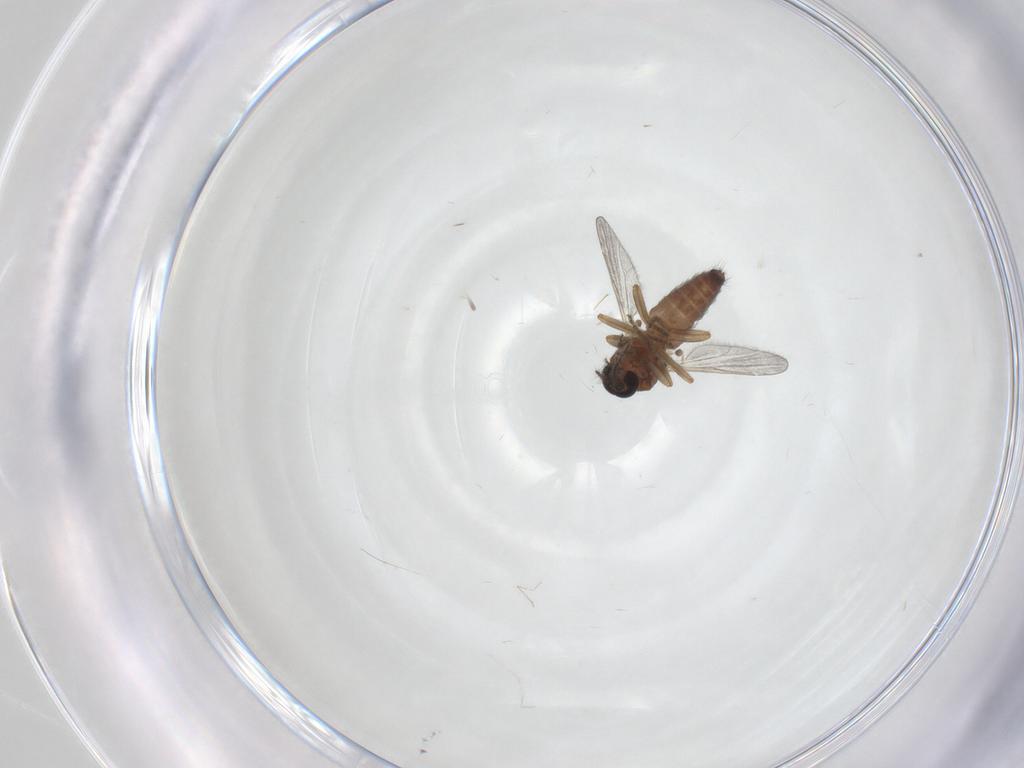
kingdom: Animalia
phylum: Arthropoda
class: Insecta
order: Diptera
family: Ceratopogonidae
